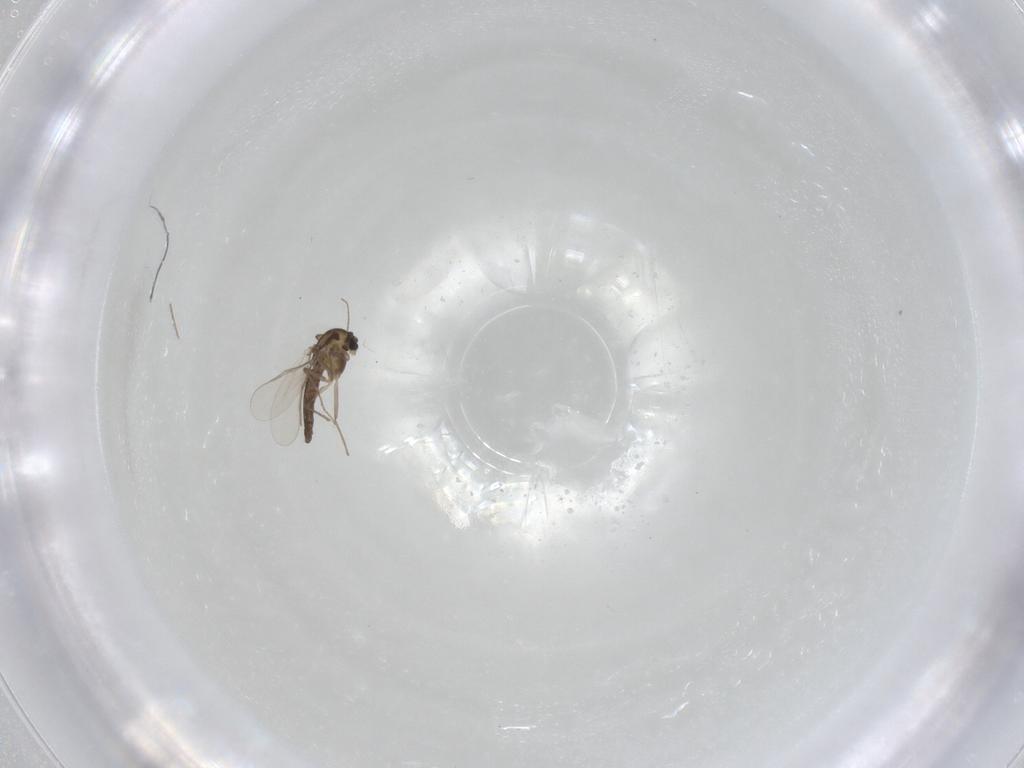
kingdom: Animalia
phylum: Arthropoda
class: Insecta
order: Diptera
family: Chironomidae
